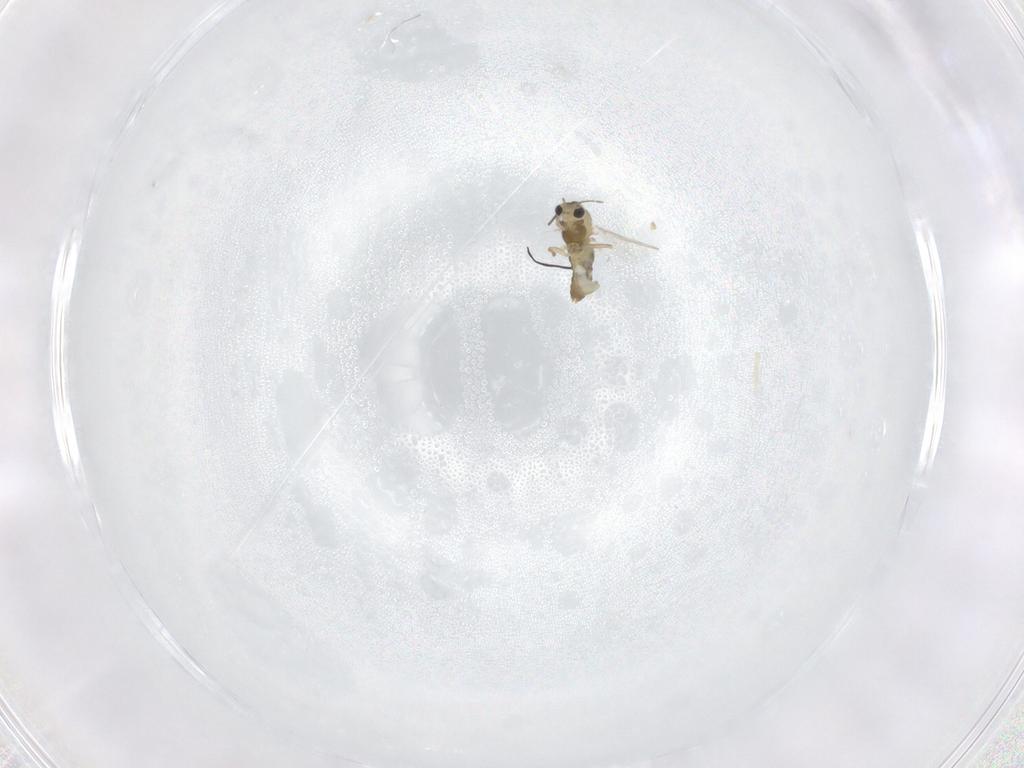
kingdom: Animalia
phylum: Arthropoda
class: Insecta
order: Diptera
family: Chironomidae
